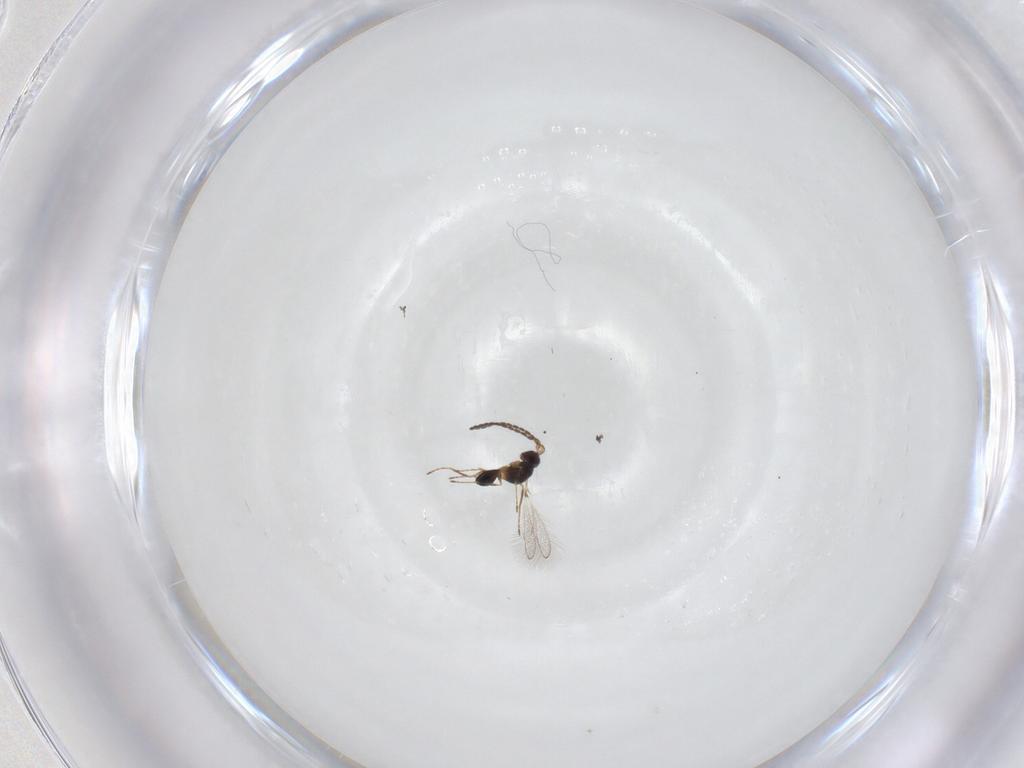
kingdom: Animalia
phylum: Arthropoda
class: Insecta
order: Hymenoptera
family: Mymaridae
